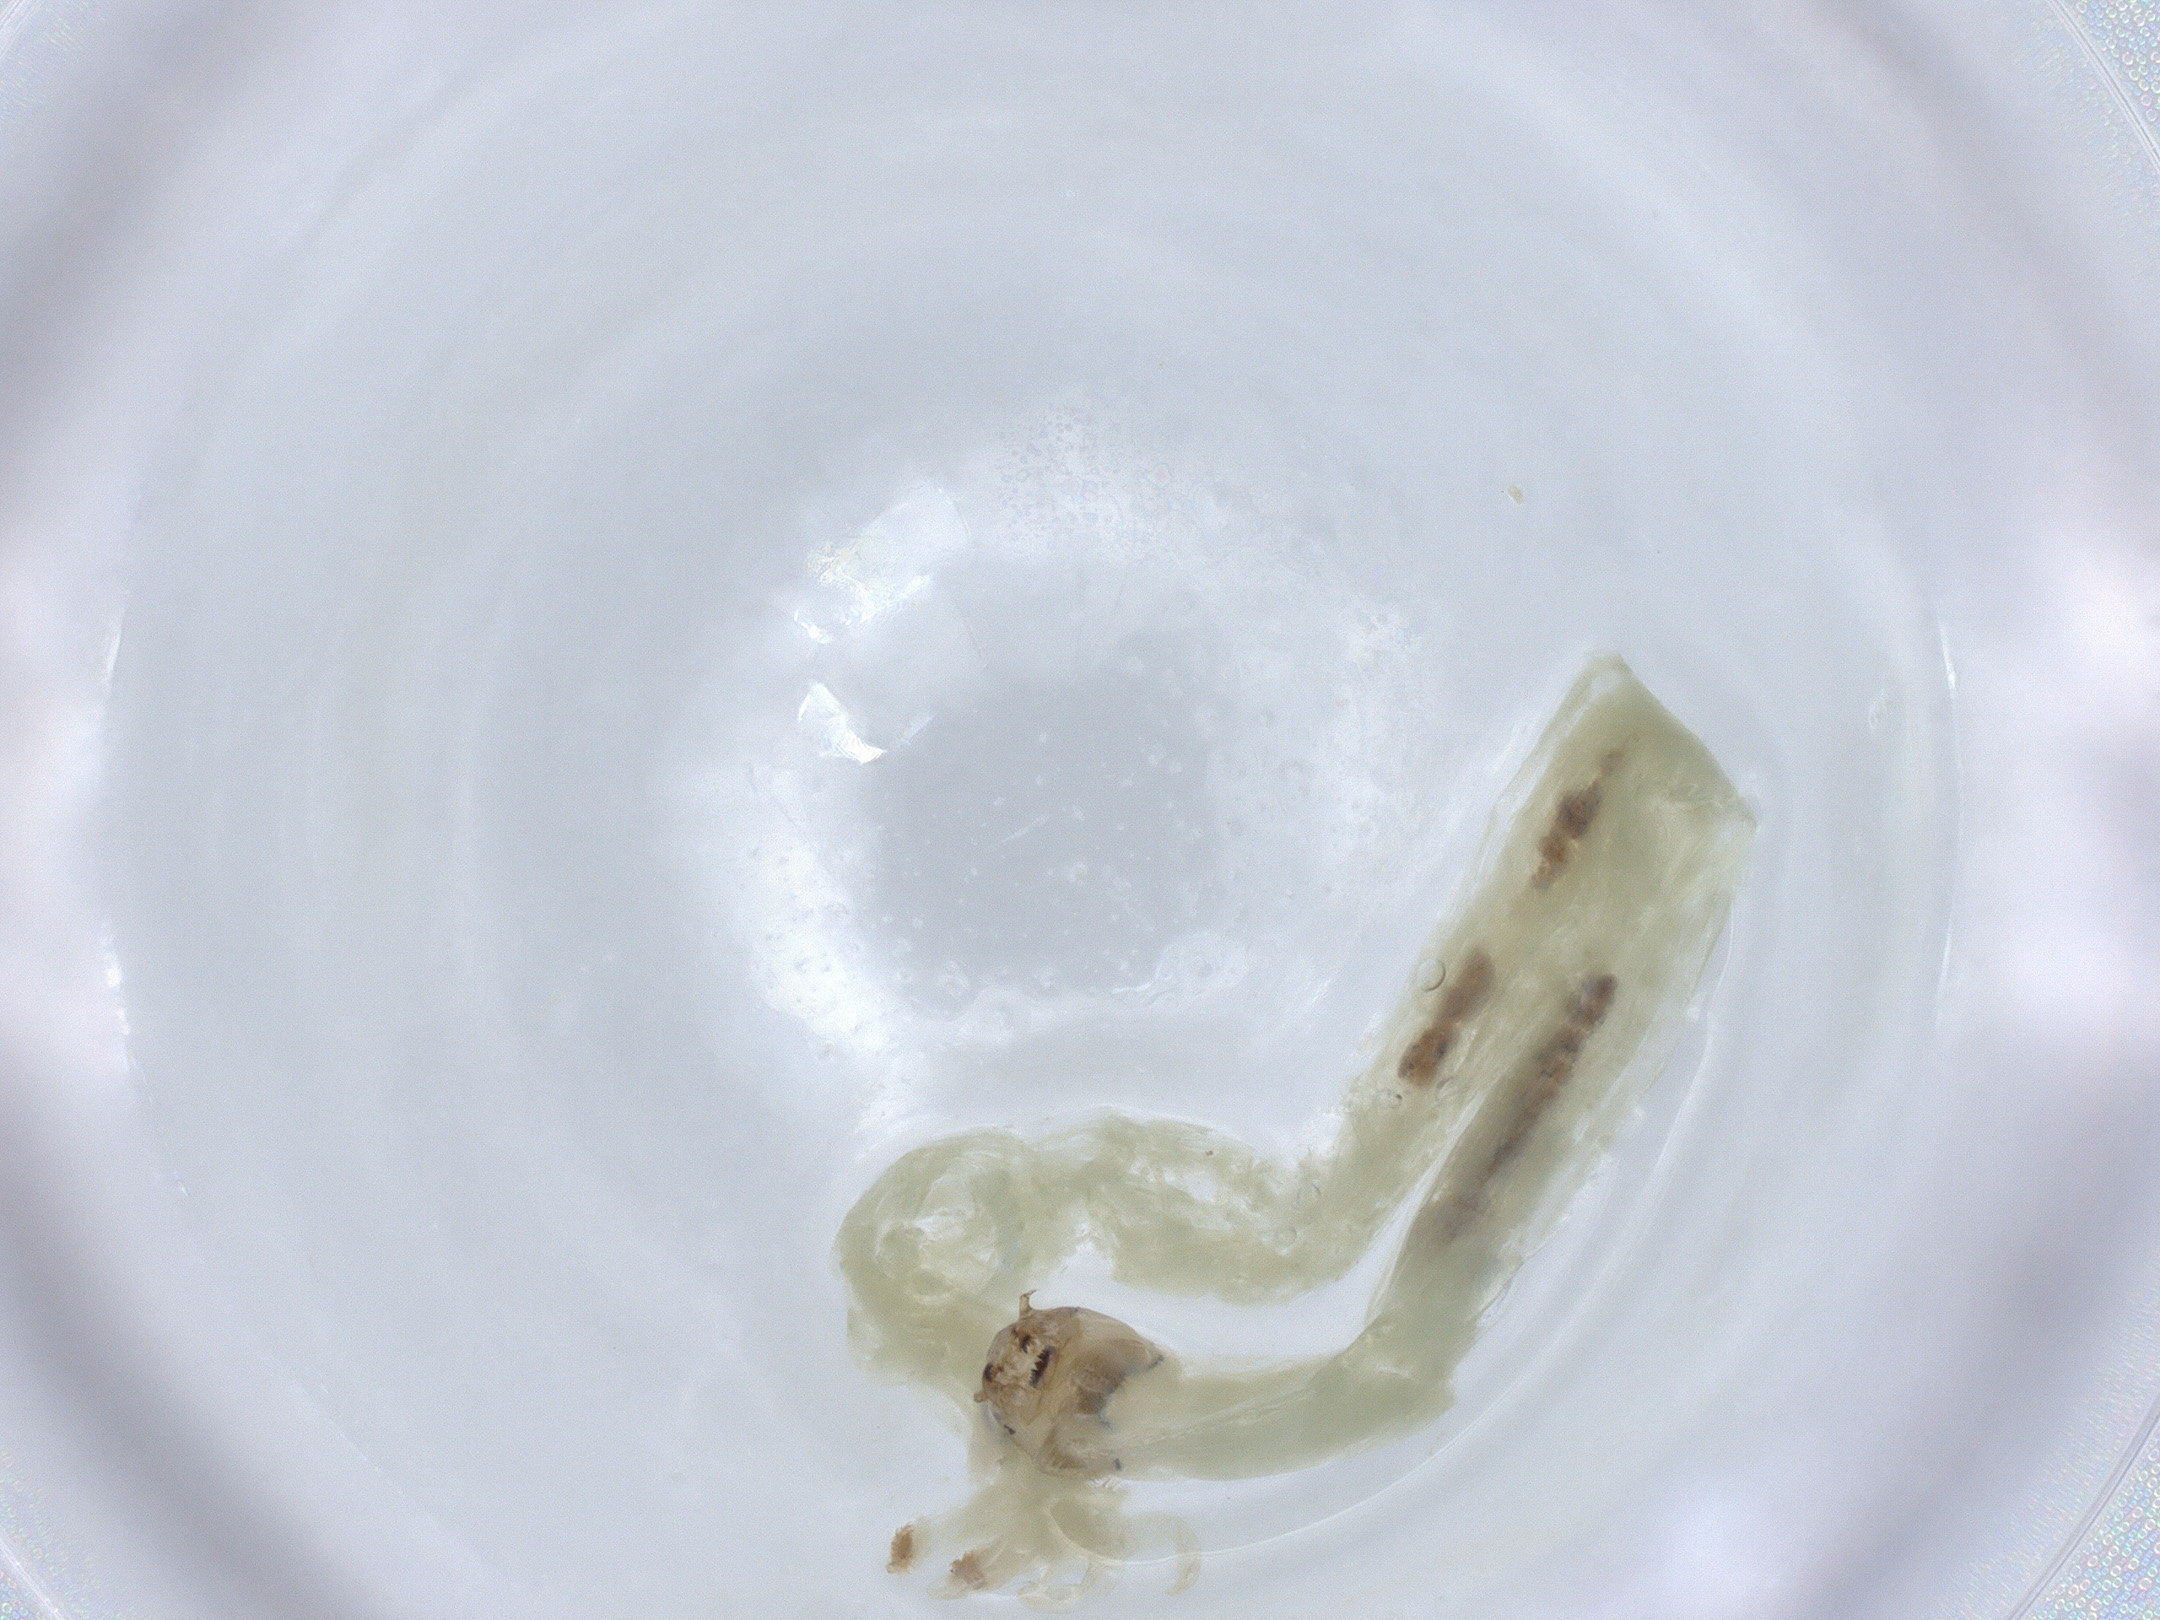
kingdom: Animalia
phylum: Arthropoda
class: Insecta
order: Diptera
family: Chironomidae
